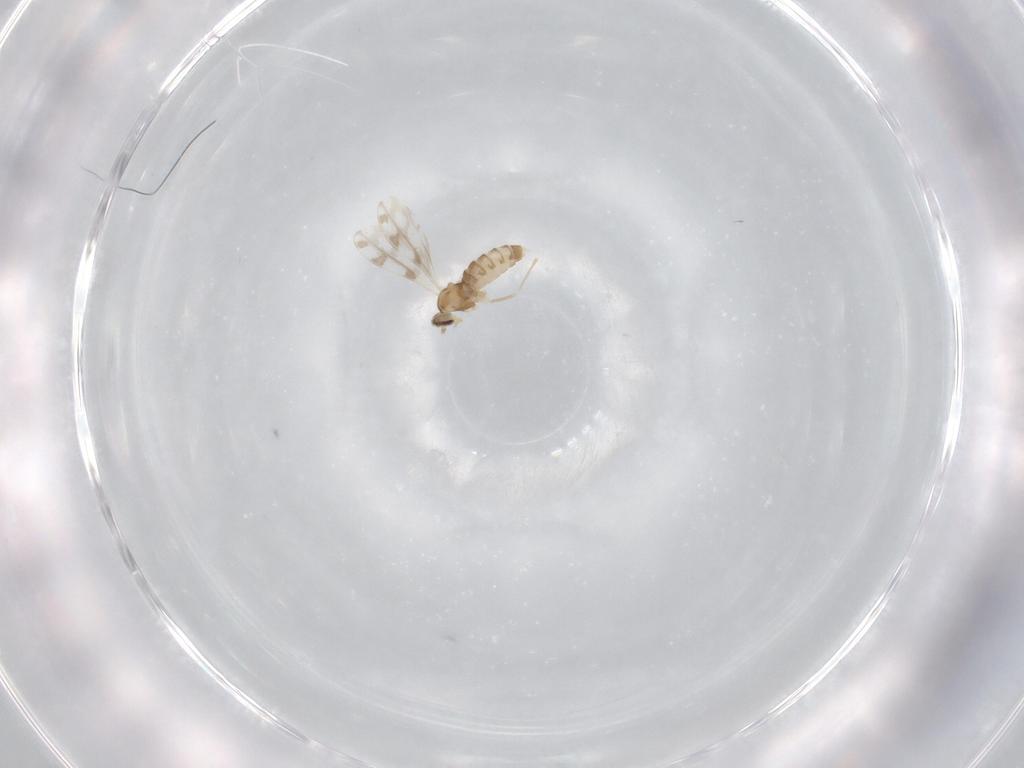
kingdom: Animalia
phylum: Arthropoda
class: Insecta
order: Diptera
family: Cecidomyiidae
